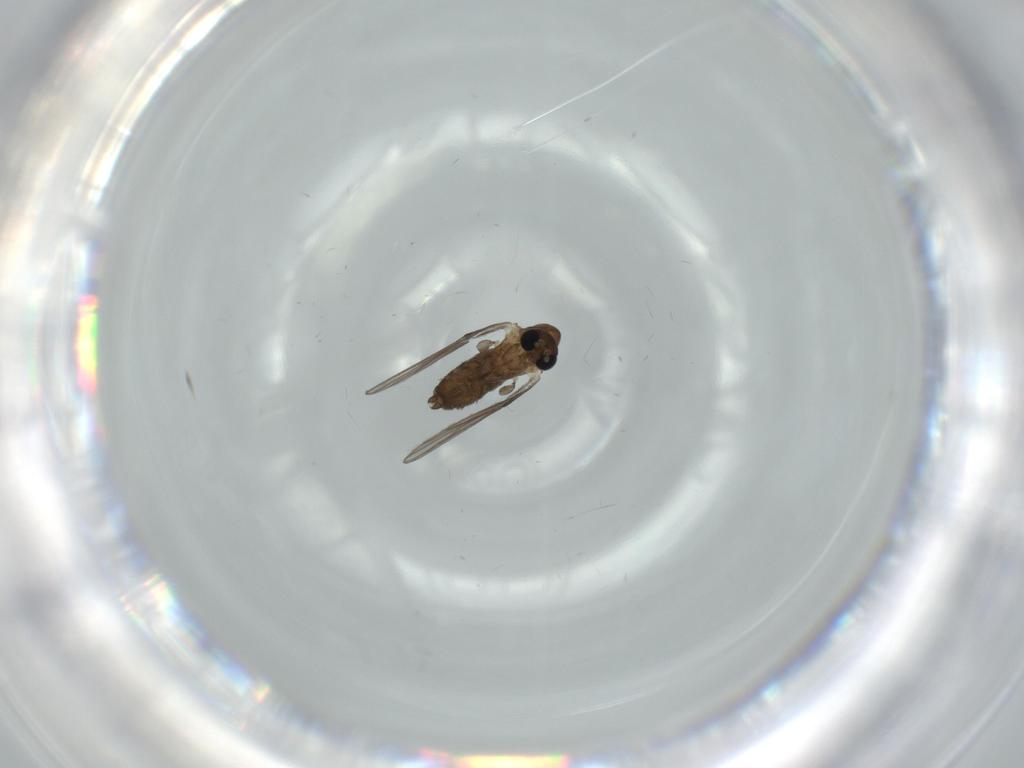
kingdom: Animalia
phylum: Arthropoda
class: Insecta
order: Diptera
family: Psychodidae
